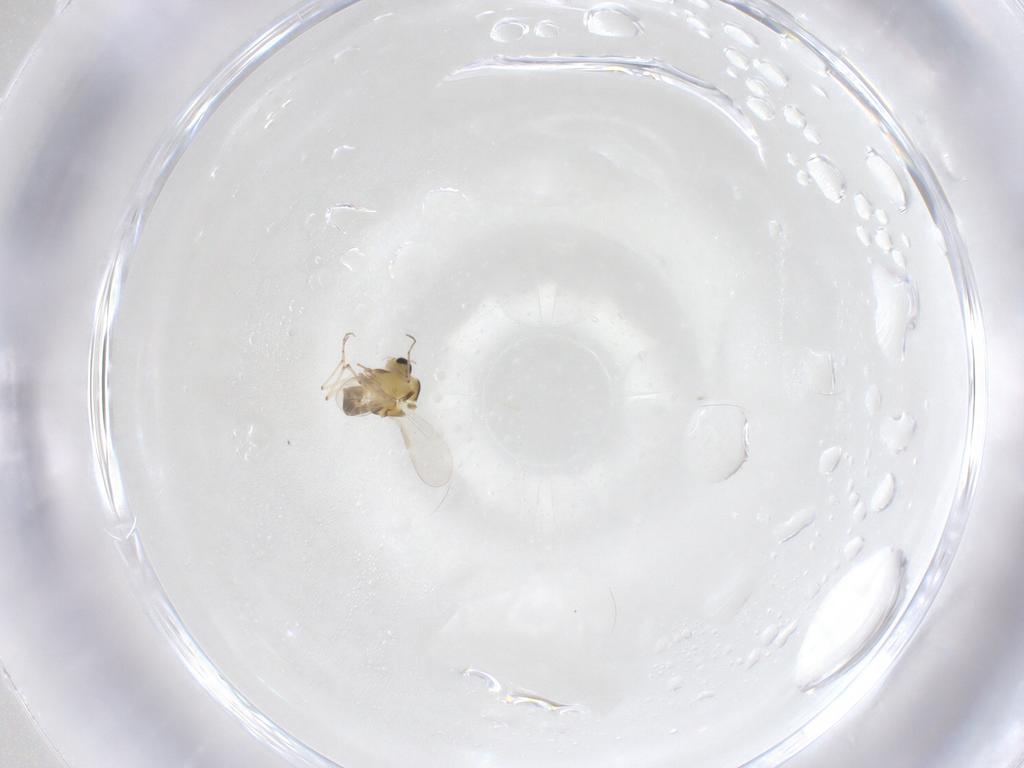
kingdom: Animalia
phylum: Arthropoda
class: Insecta
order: Diptera
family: Chironomidae
